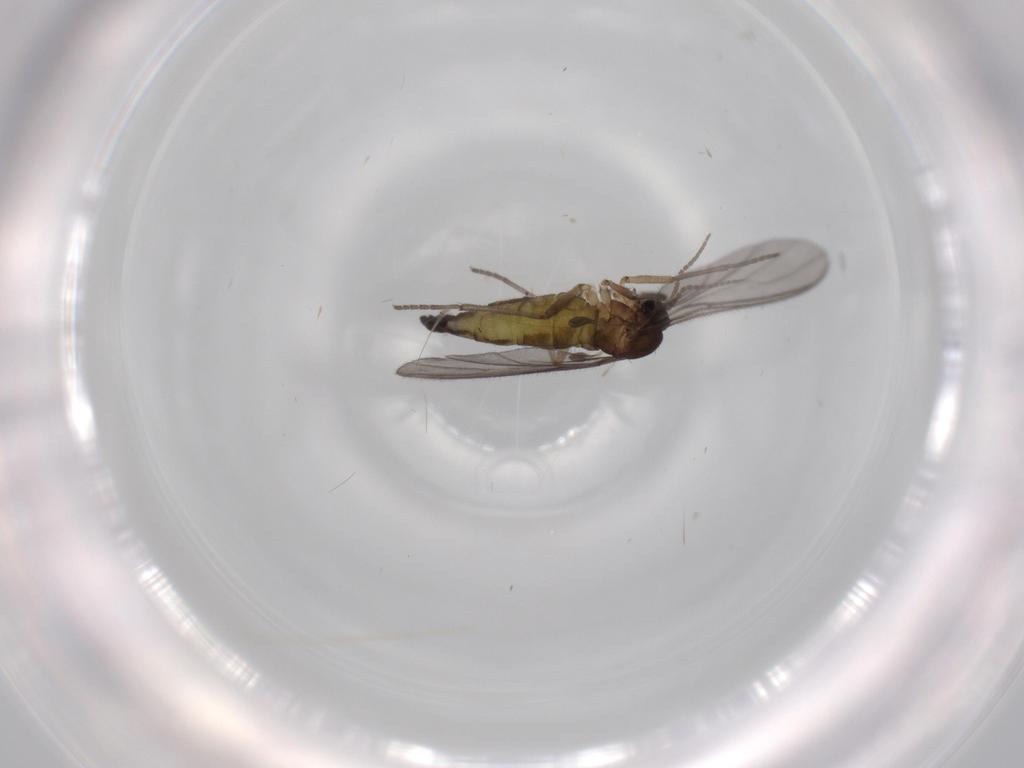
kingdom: Animalia
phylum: Arthropoda
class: Insecta
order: Diptera
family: Sciaridae
